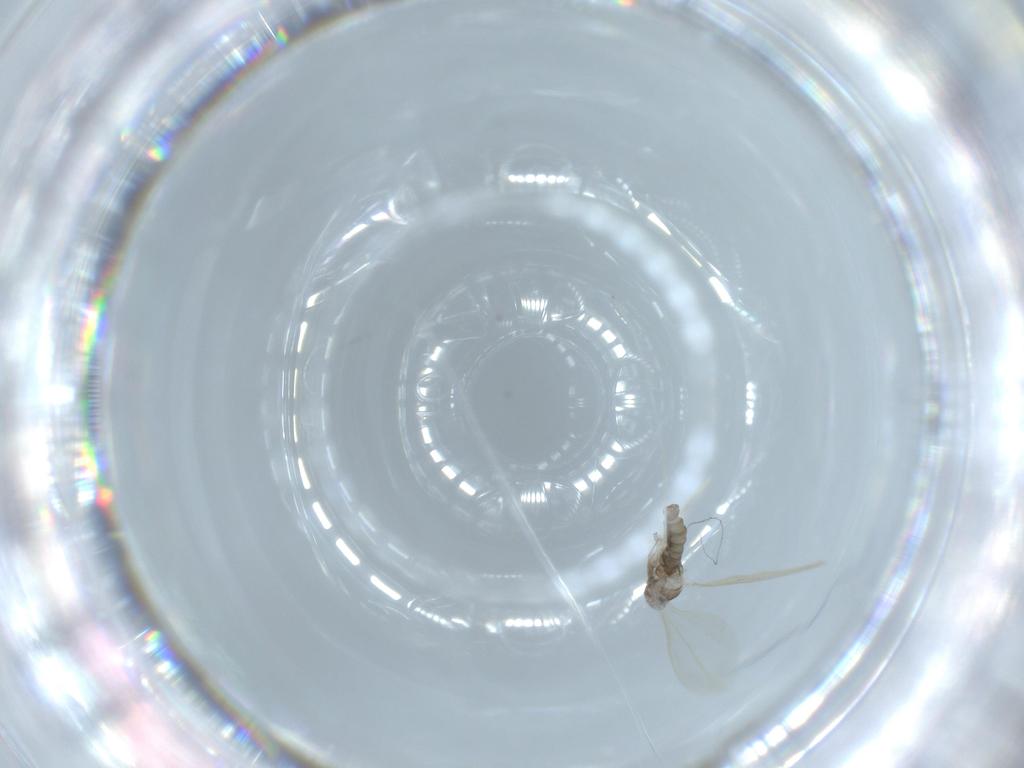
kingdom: Animalia
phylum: Arthropoda
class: Insecta
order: Diptera
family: Cecidomyiidae
